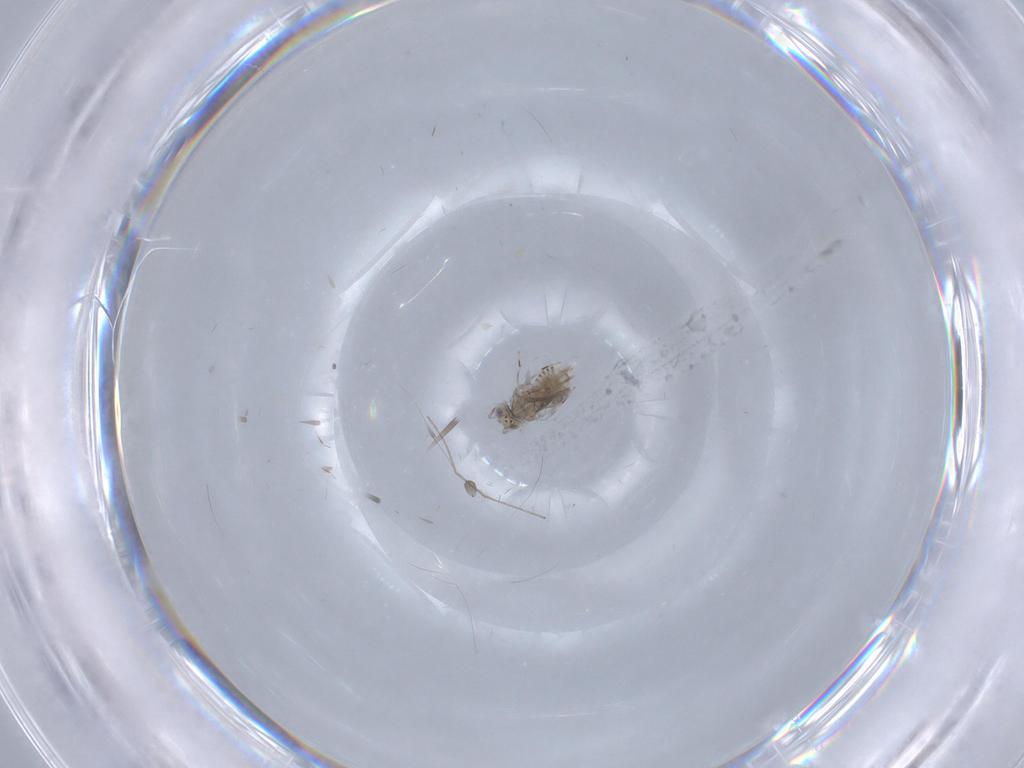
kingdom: Animalia
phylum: Arthropoda
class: Insecta
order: Hymenoptera
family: Aphelinidae
